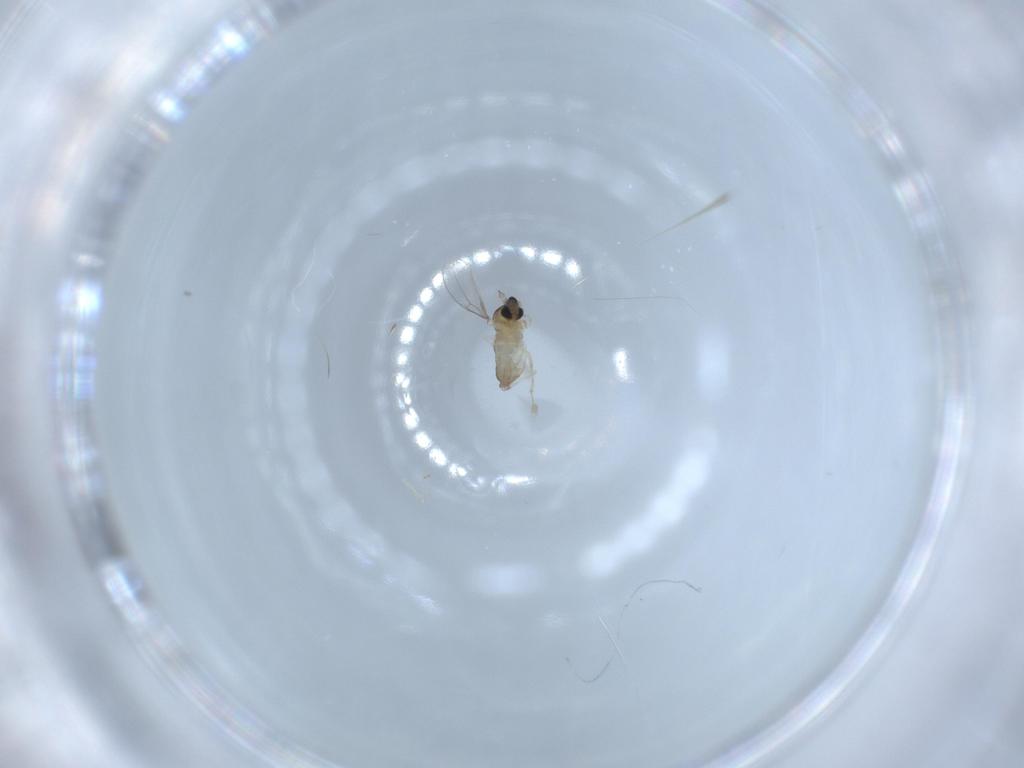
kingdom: Animalia
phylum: Arthropoda
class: Insecta
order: Diptera
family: Cecidomyiidae
